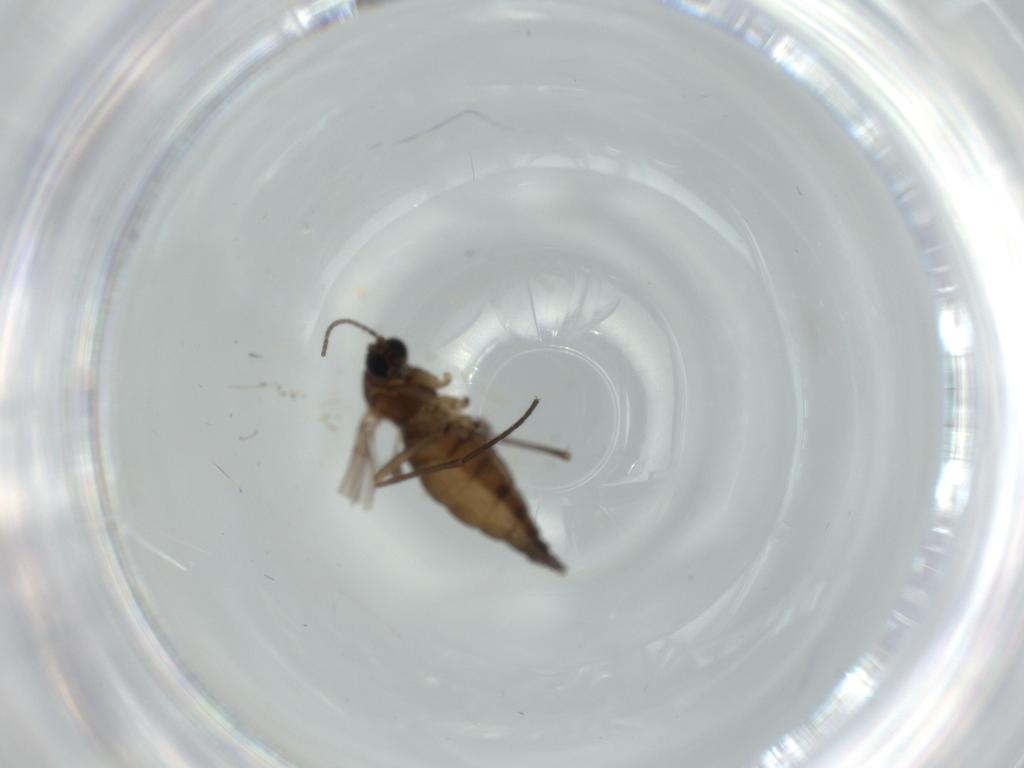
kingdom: Animalia
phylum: Arthropoda
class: Insecta
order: Diptera
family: Sciaridae
